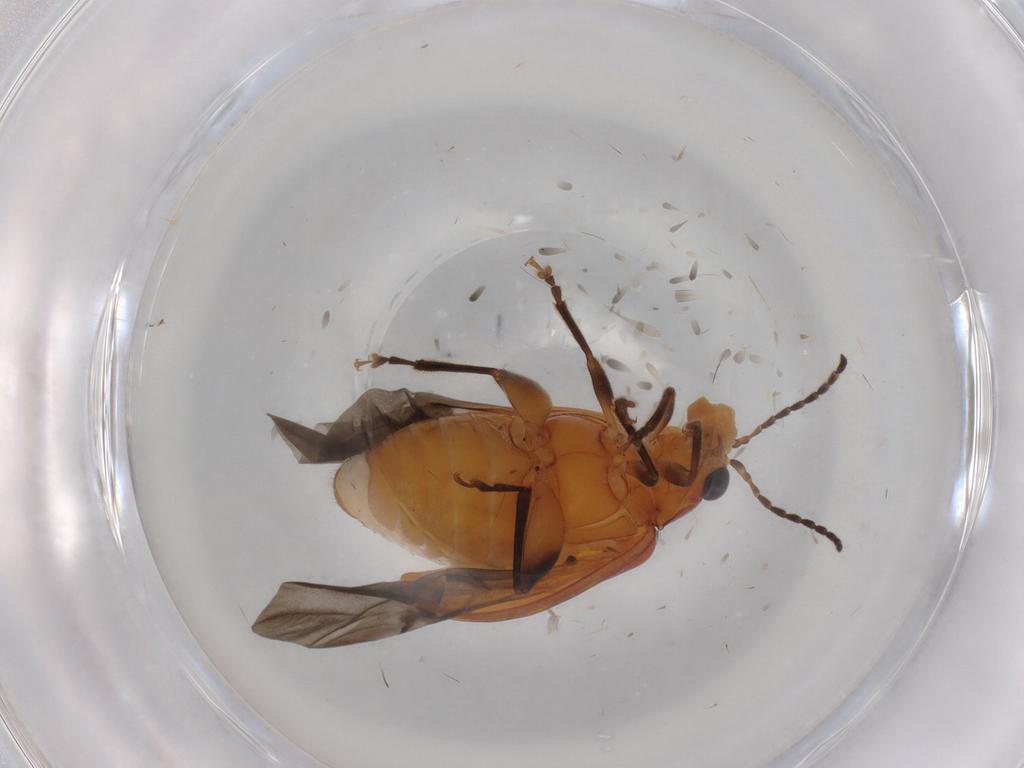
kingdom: Animalia
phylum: Arthropoda
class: Insecta
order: Coleoptera
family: Chrysomelidae
